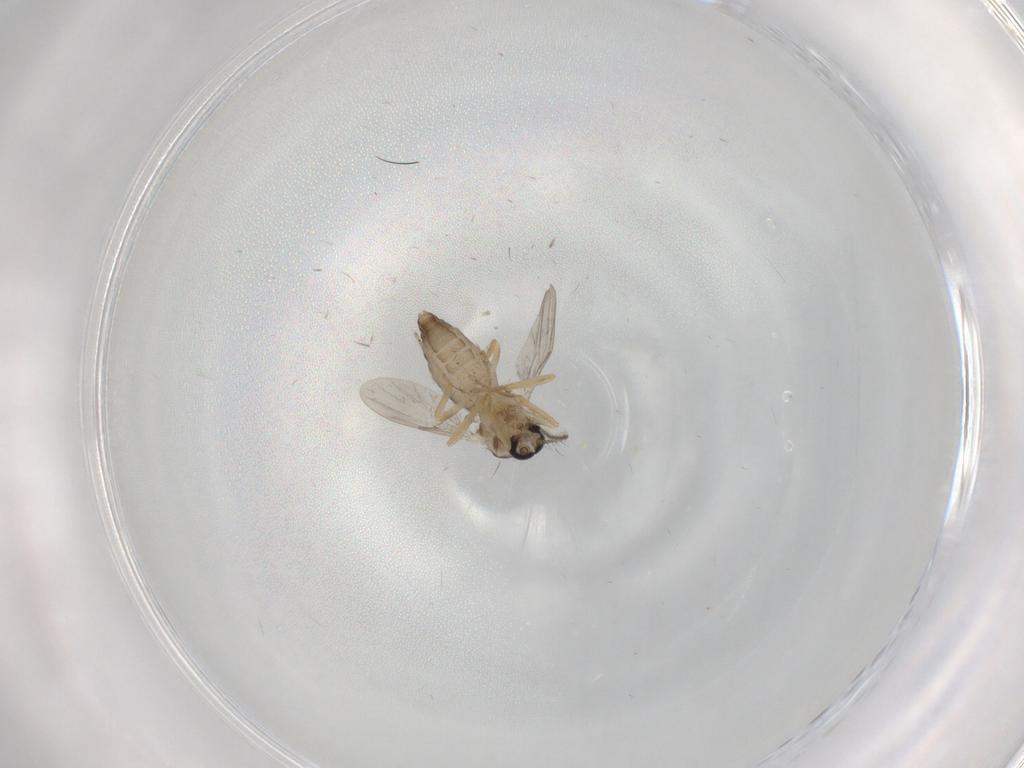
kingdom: Animalia
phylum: Arthropoda
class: Insecta
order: Diptera
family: Ceratopogonidae
